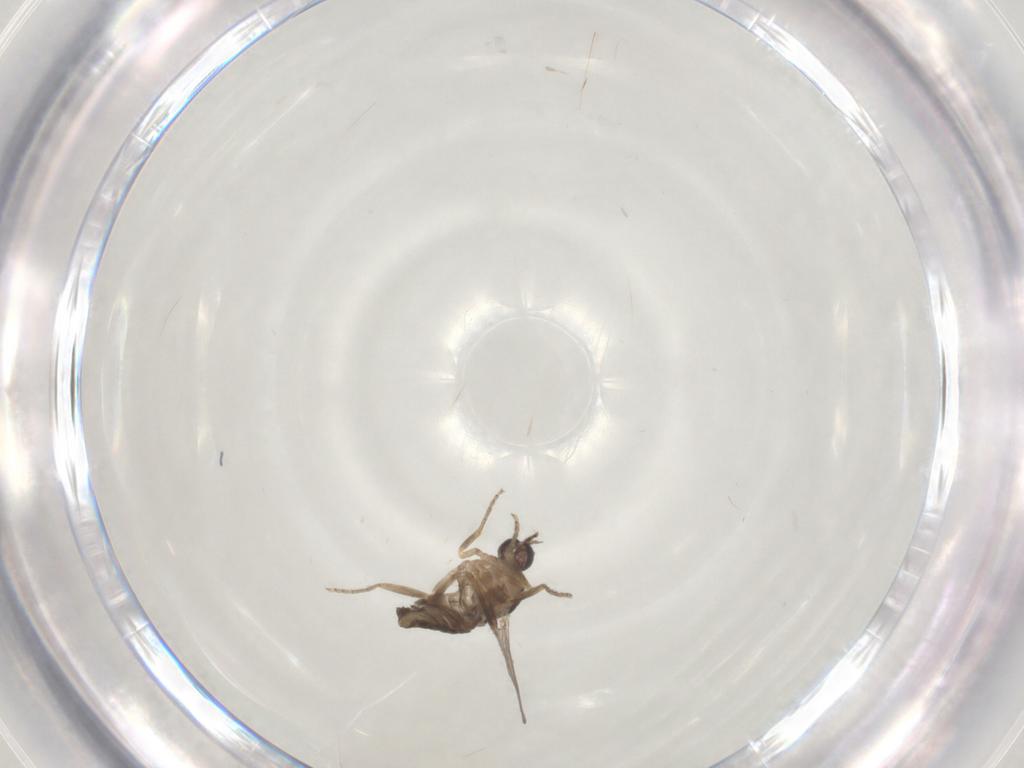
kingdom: Animalia
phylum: Arthropoda
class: Insecta
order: Diptera
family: Ceratopogonidae
